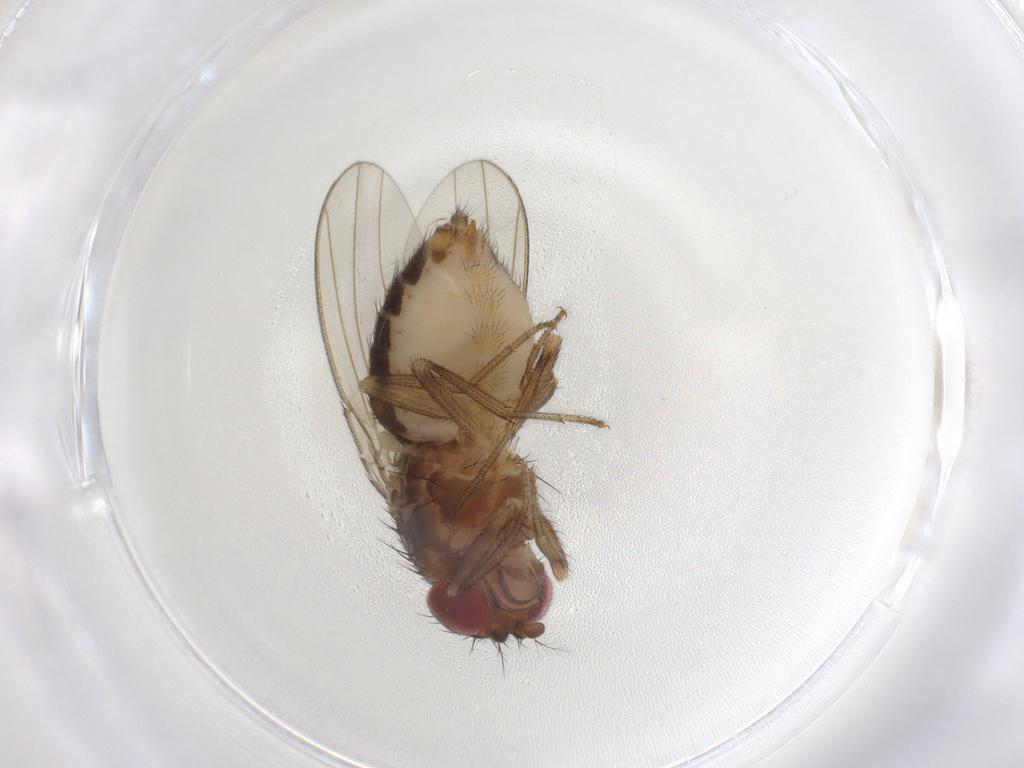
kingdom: Animalia
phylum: Arthropoda
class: Insecta
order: Diptera
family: Drosophilidae
